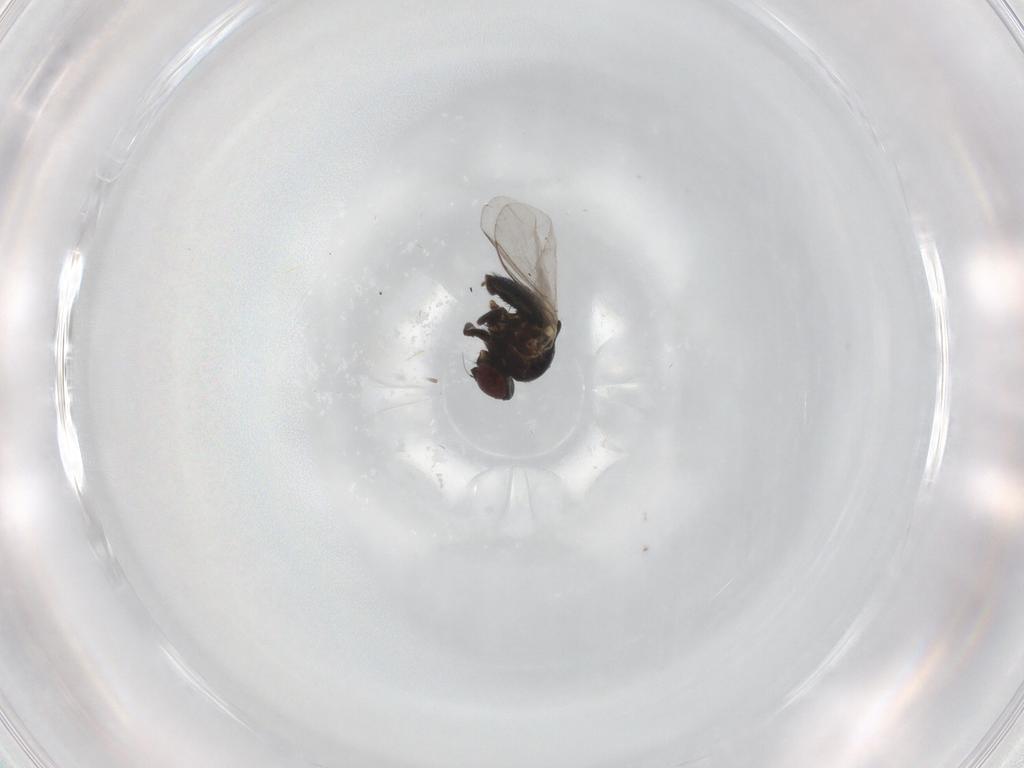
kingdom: Animalia
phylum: Arthropoda
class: Insecta
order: Diptera
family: Agromyzidae
